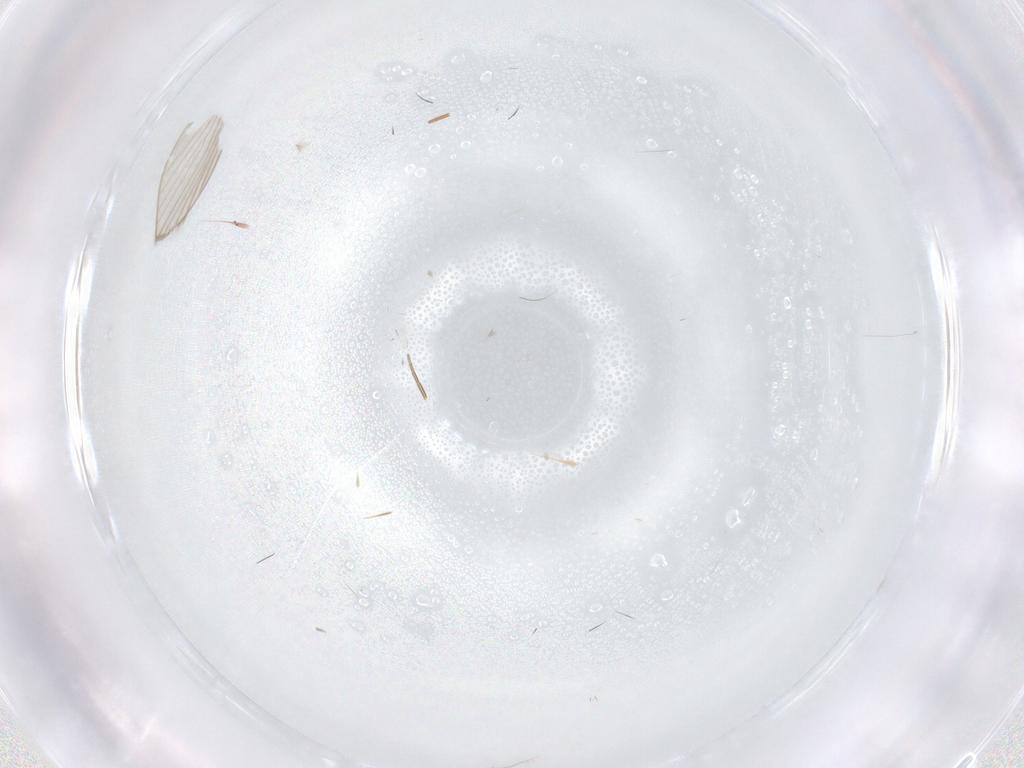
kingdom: Animalia
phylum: Arthropoda
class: Insecta
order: Diptera
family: Cecidomyiidae
